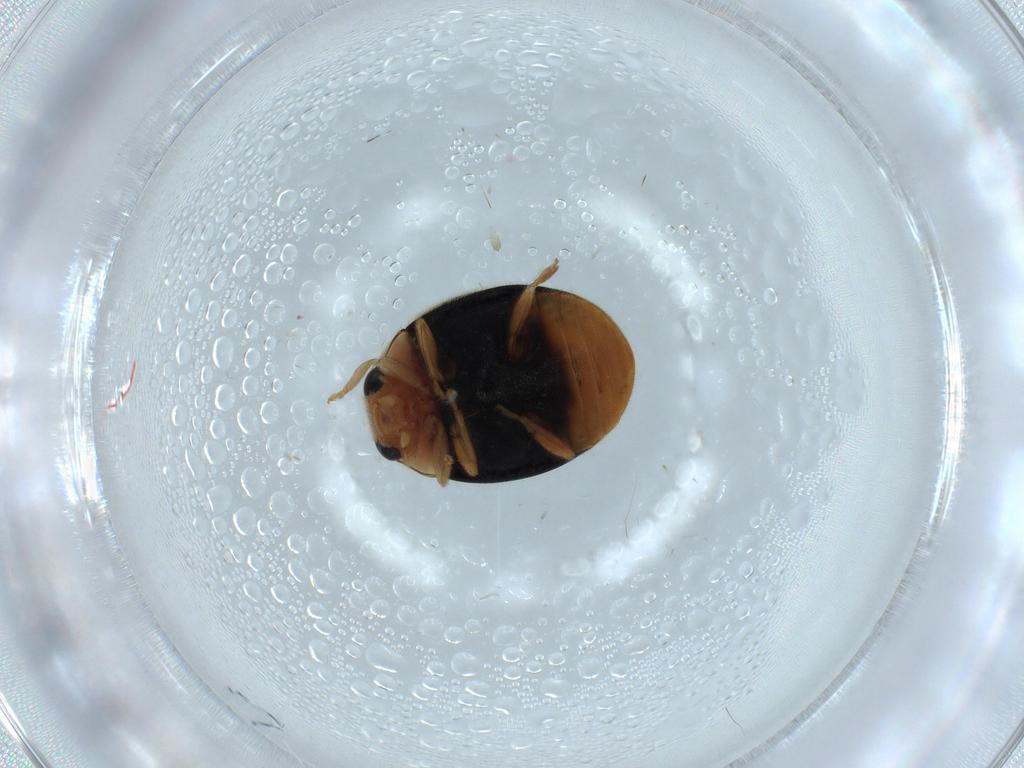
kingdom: Animalia
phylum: Arthropoda
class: Insecta
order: Coleoptera
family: Coccinellidae
